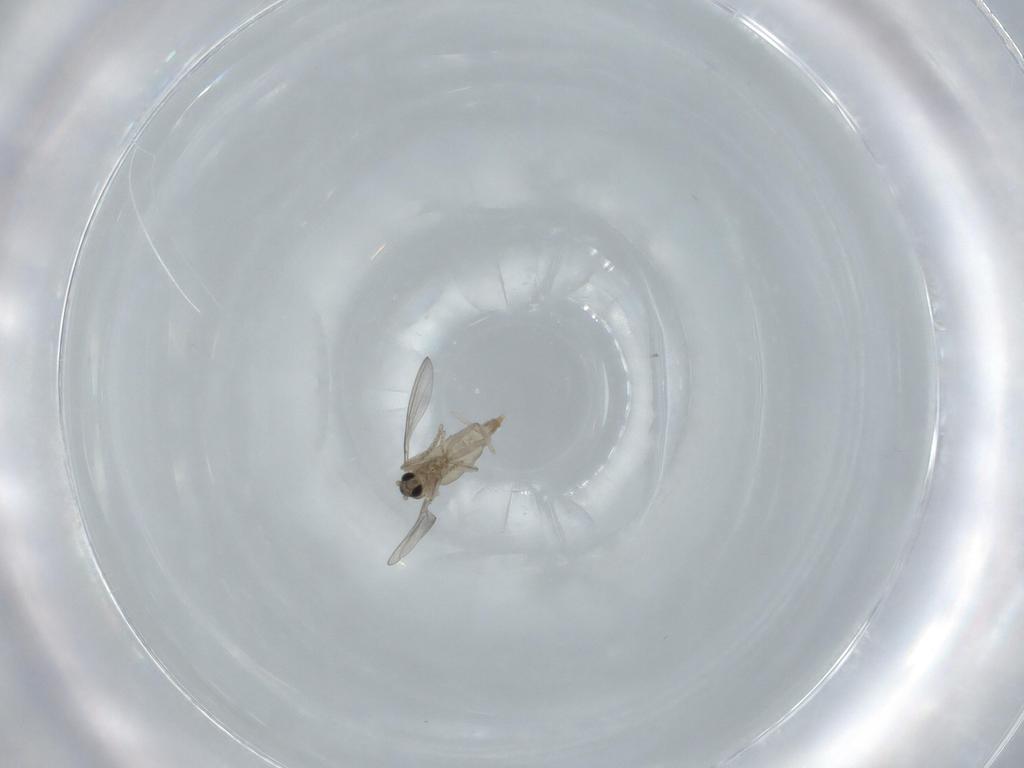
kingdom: Animalia
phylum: Arthropoda
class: Insecta
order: Diptera
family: Cecidomyiidae
